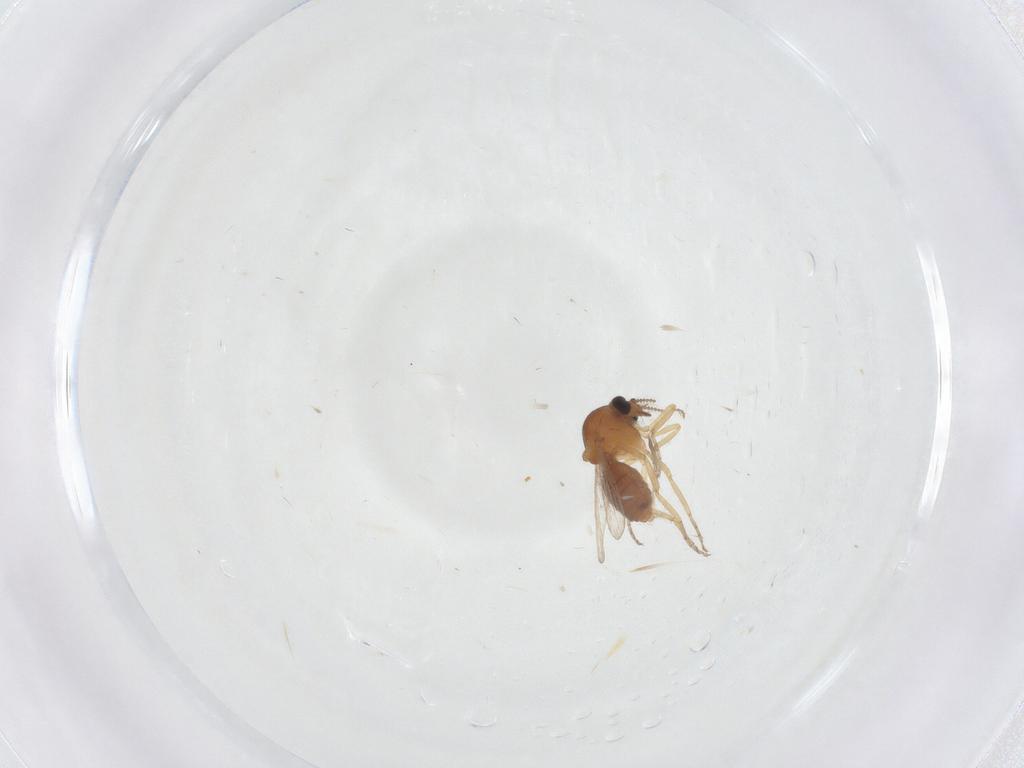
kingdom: Animalia
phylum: Arthropoda
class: Insecta
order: Diptera
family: Ceratopogonidae
